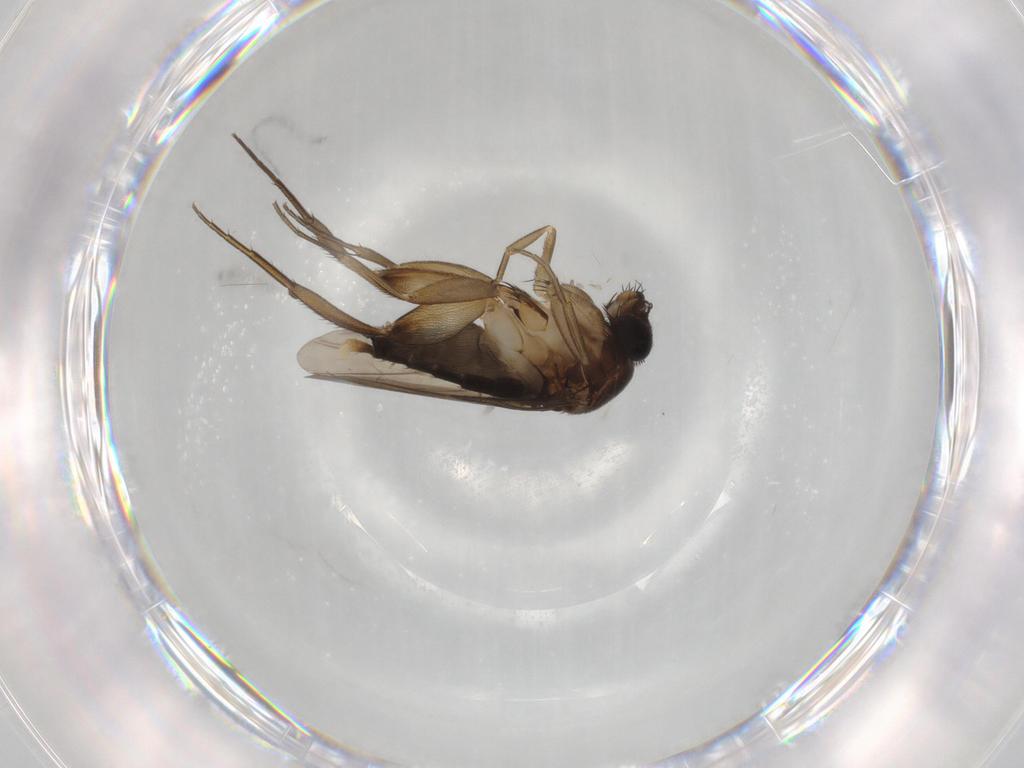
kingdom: Animalia
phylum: Arthropoda
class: Insecta
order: Diptera
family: Phoridae
